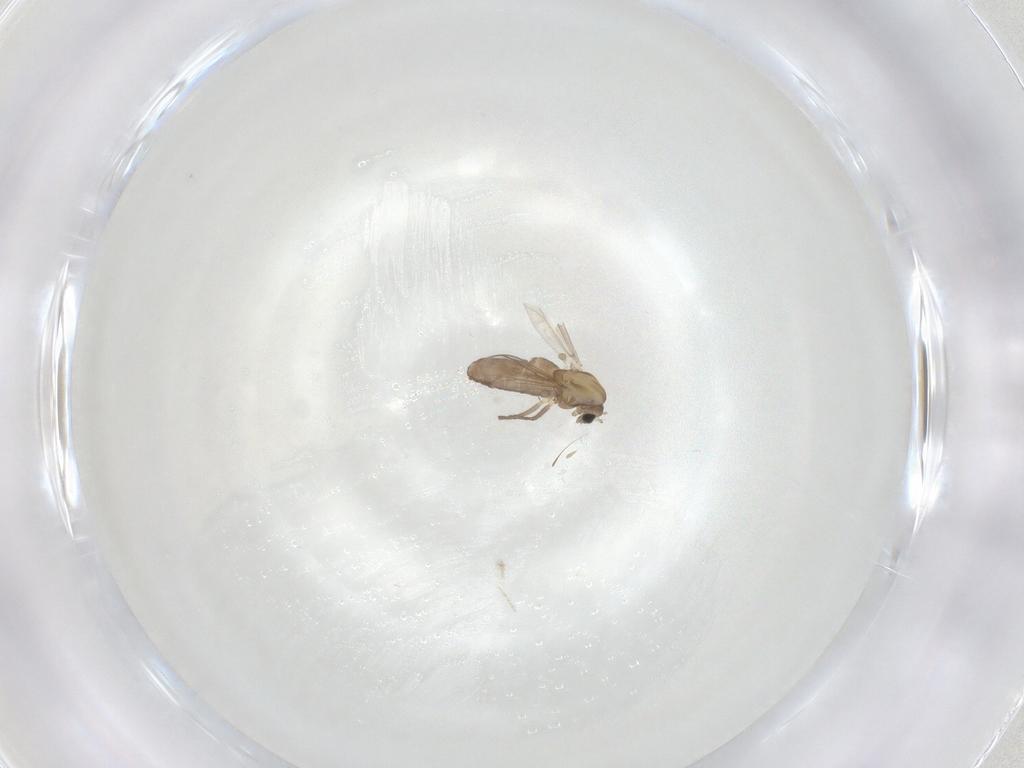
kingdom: Animalia
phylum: Arthropoda
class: Insecta
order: Diptera
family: Chironomidae
